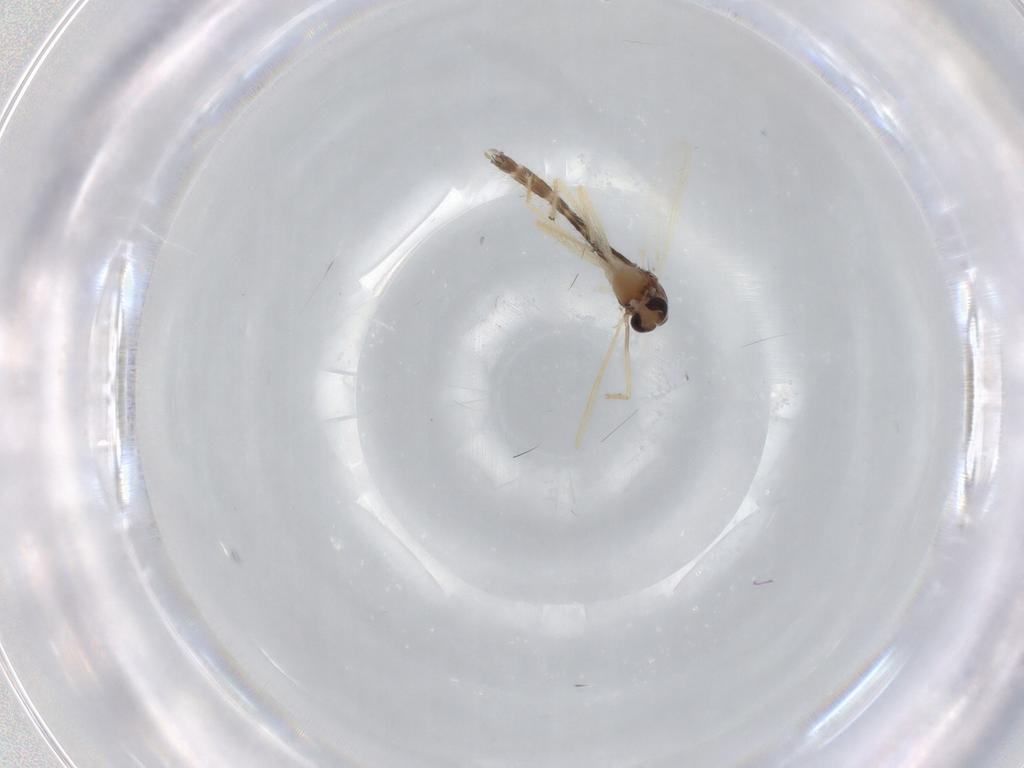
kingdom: Animalia
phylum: Arthropoda
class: Insecta
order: Diptera
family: Chironomidae
